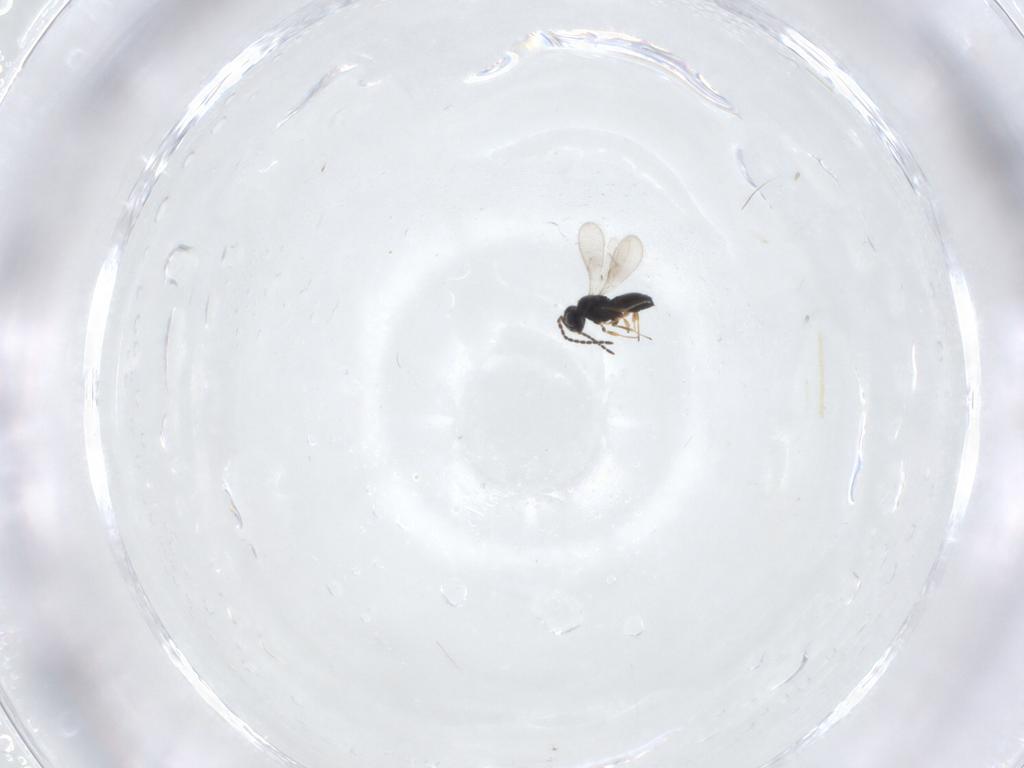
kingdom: Animalia
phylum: Arthropoda
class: Insecta
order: Hymenoptera
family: Scelionidae
